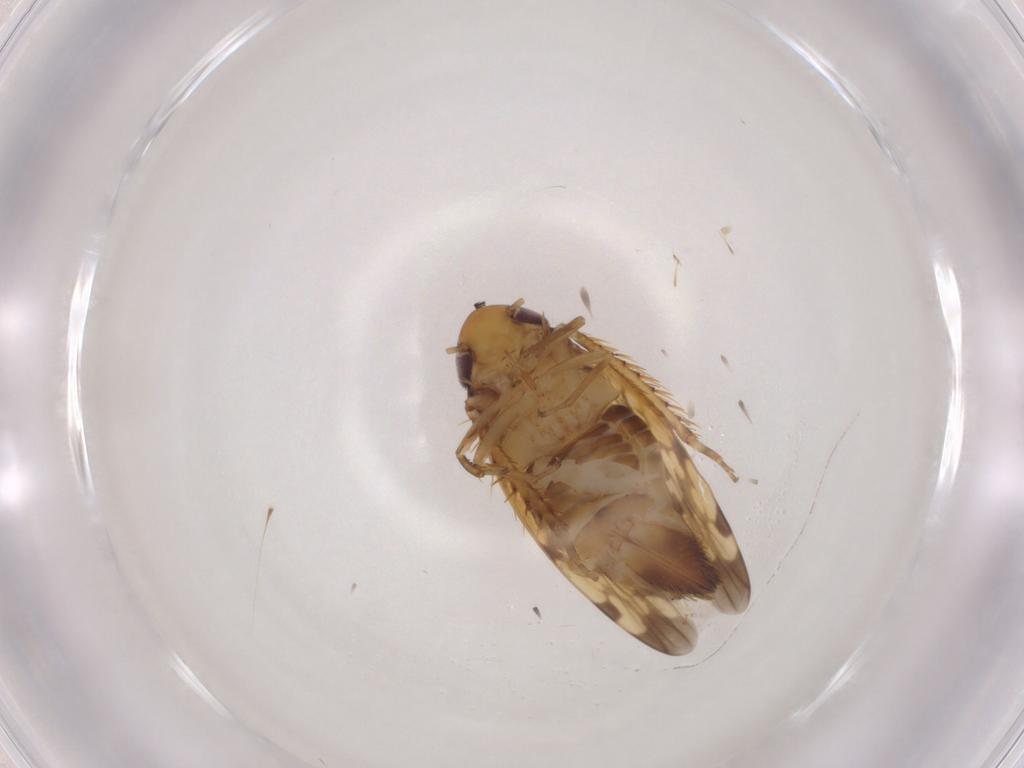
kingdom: Animalia
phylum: Arthropoda
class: Insecta
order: Hemiptera
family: Cicadellidae
